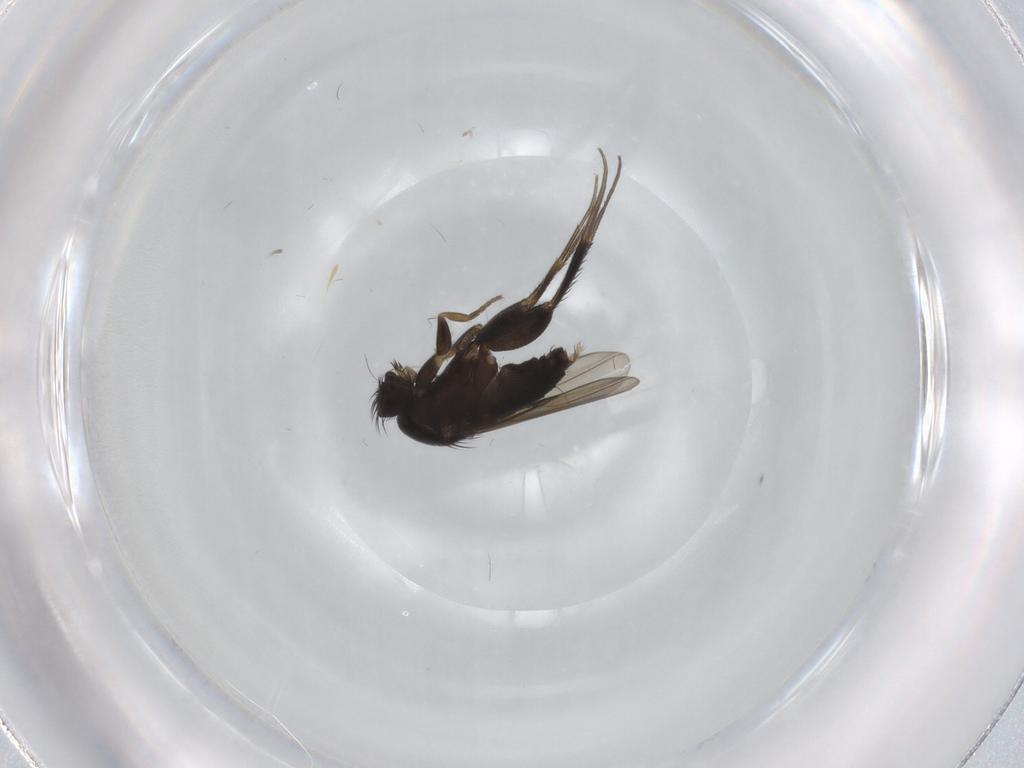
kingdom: Animalia
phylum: Arthropoda
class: Insecta
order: Diptera
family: Phoridae
